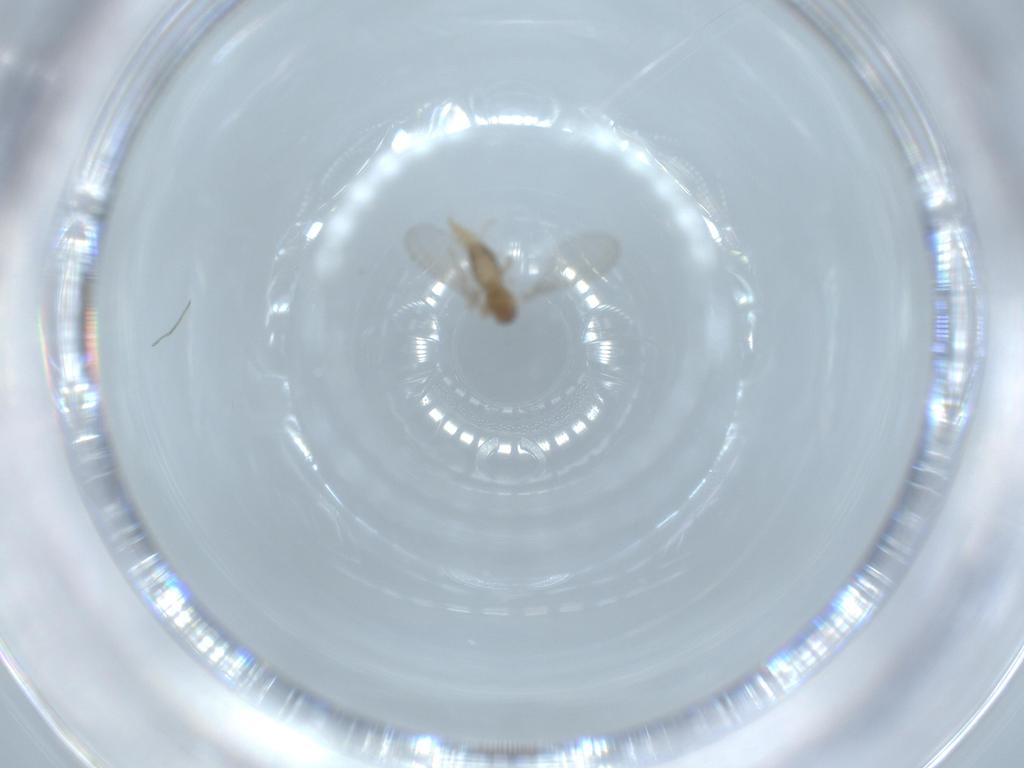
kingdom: Animalia
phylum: Arthropoda
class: Insecta
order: Diptera
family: Cecidomyiidae
